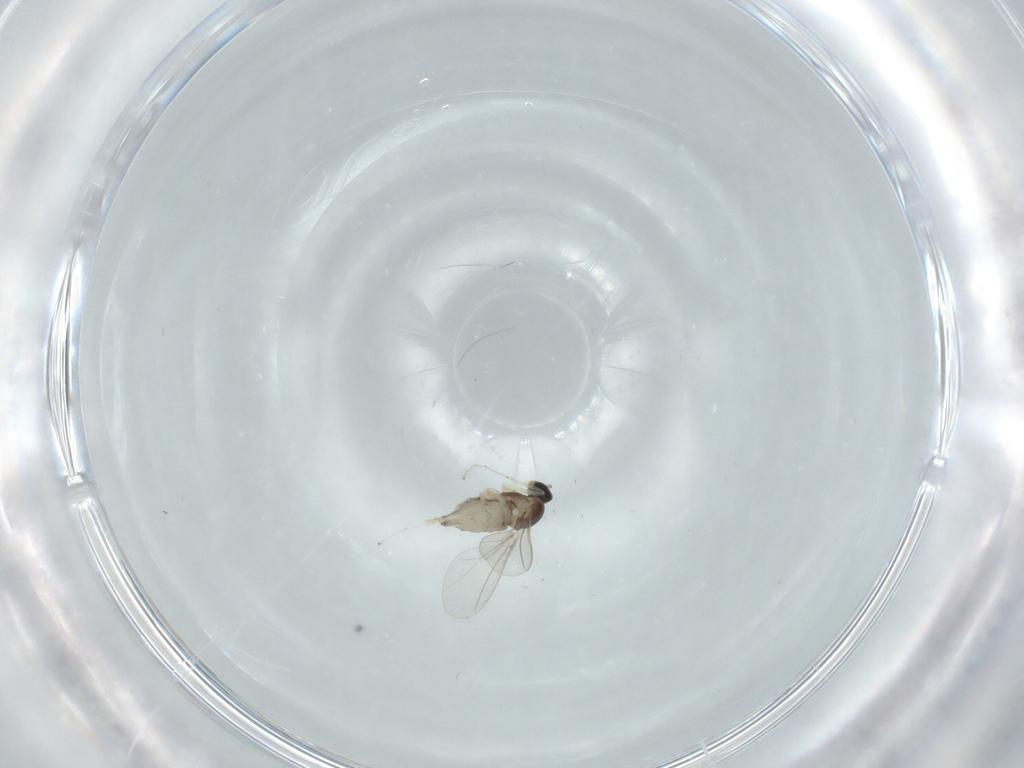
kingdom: Animalia
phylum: Arthropoda
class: Insecta
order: Diptera
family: Cecidomyiidae
